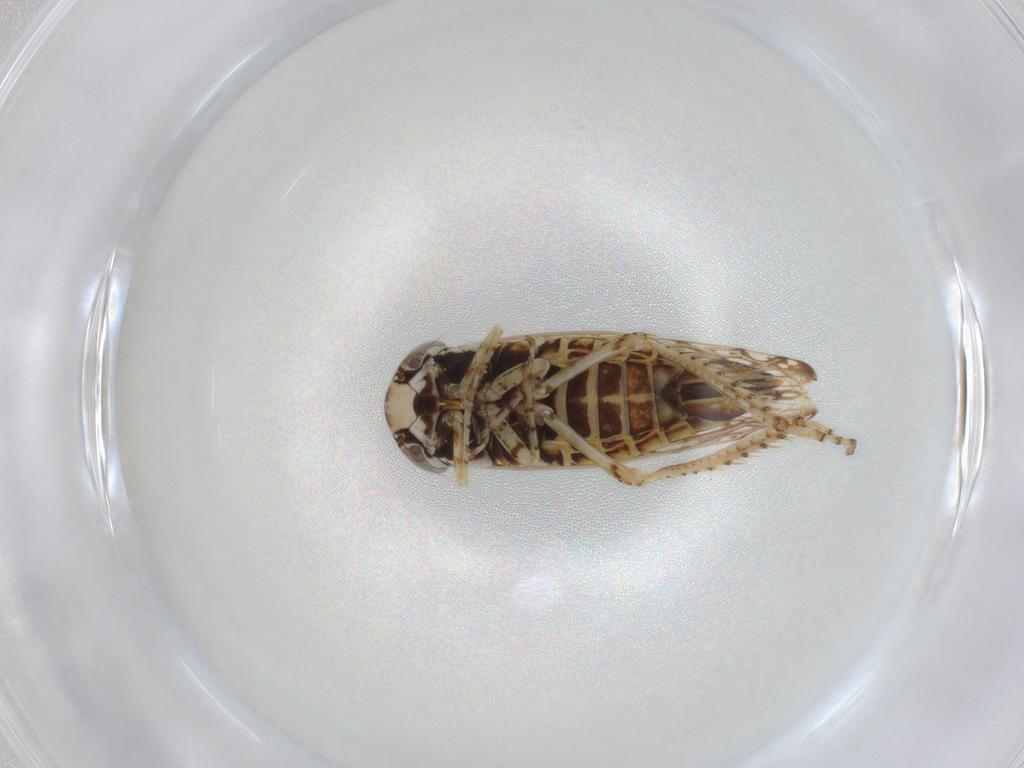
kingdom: Animalia
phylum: Arthropoda
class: Insecta
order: Hemiptera
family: Cicadellidae
